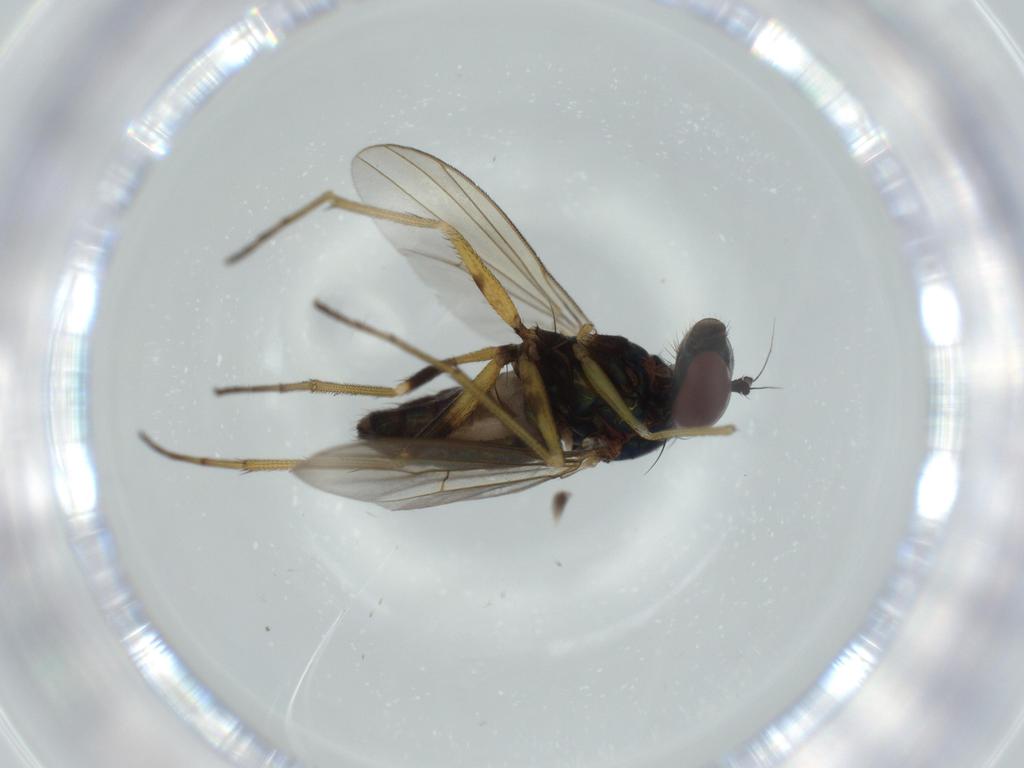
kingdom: Animalia
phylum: Arthropoda
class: Insecta
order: Diptera
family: Dolichopodidae
